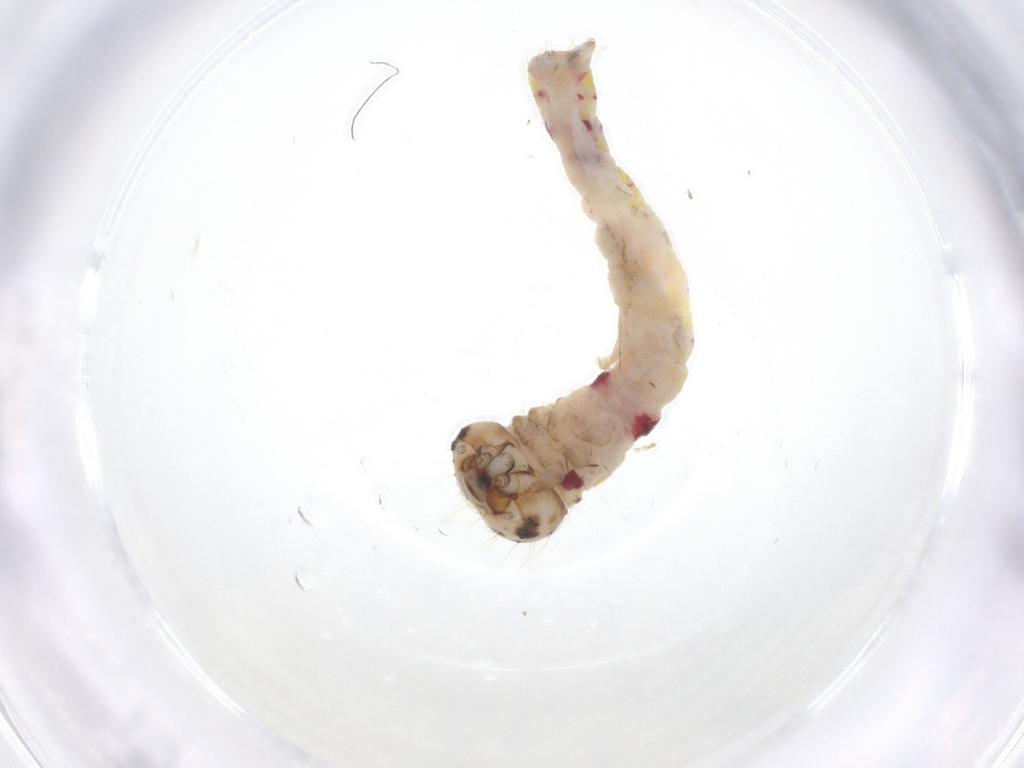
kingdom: Animalia
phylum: Arthropoda
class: Insecta
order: Lepidoptera
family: Notodontidae
